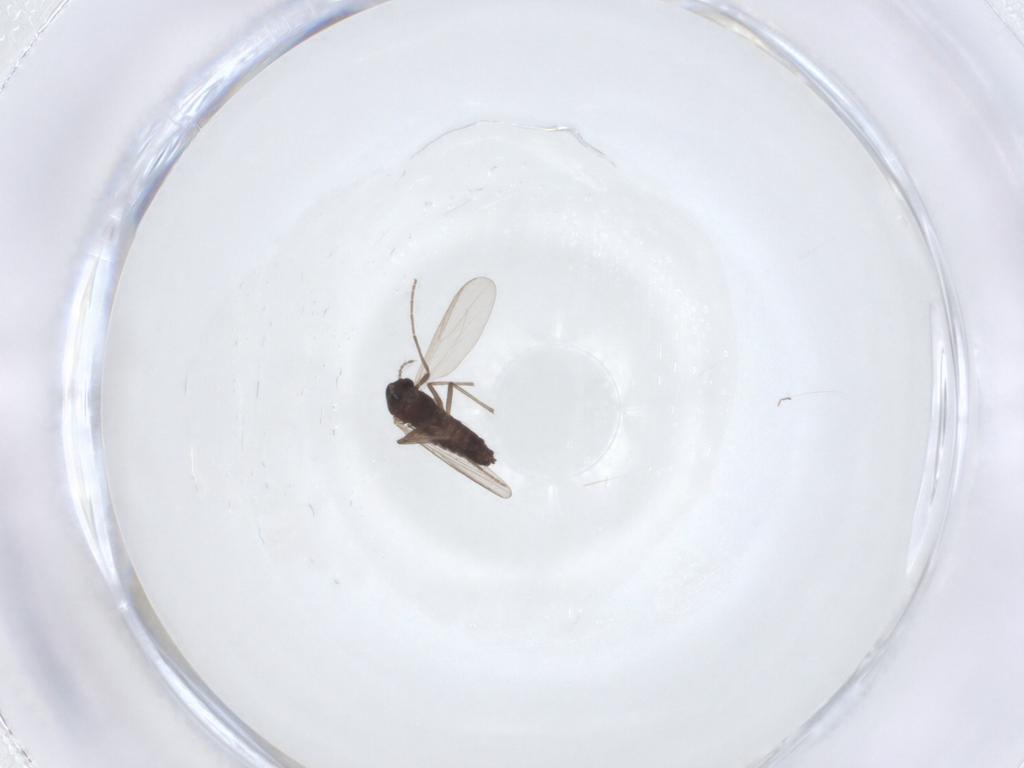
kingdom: Animalia
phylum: Arthropoda
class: Insecta
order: Diptera
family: Chironomidae
